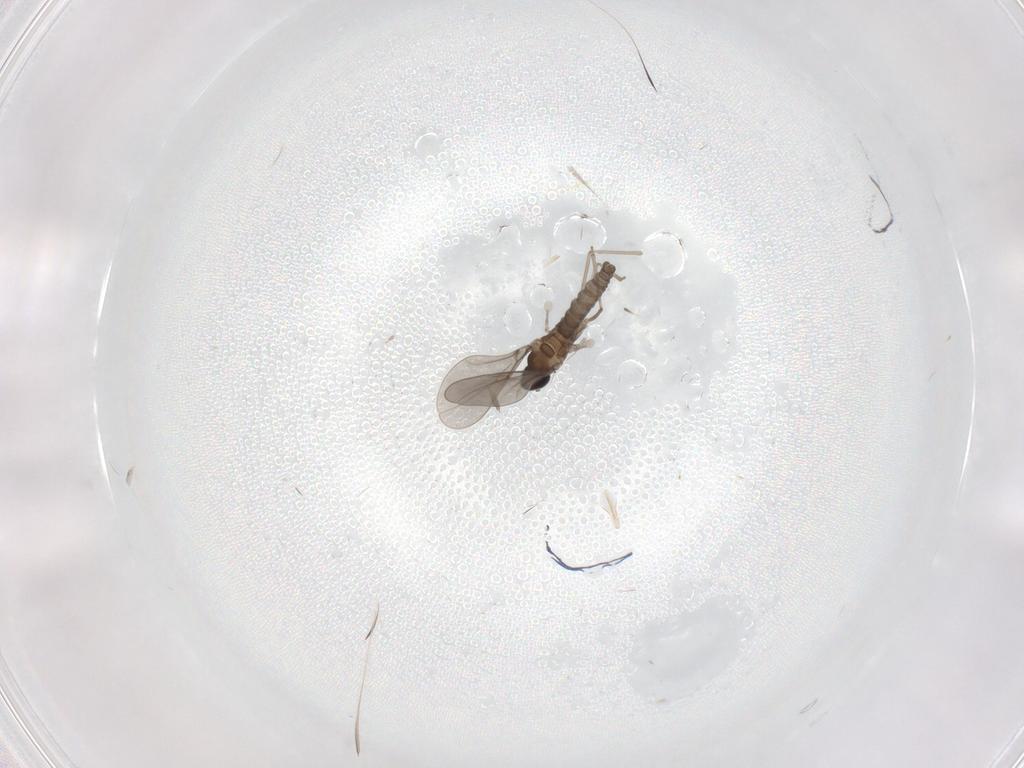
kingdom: Animalia
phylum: Arthropoda
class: Insecta
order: Diptera
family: Cecidomyiidae
